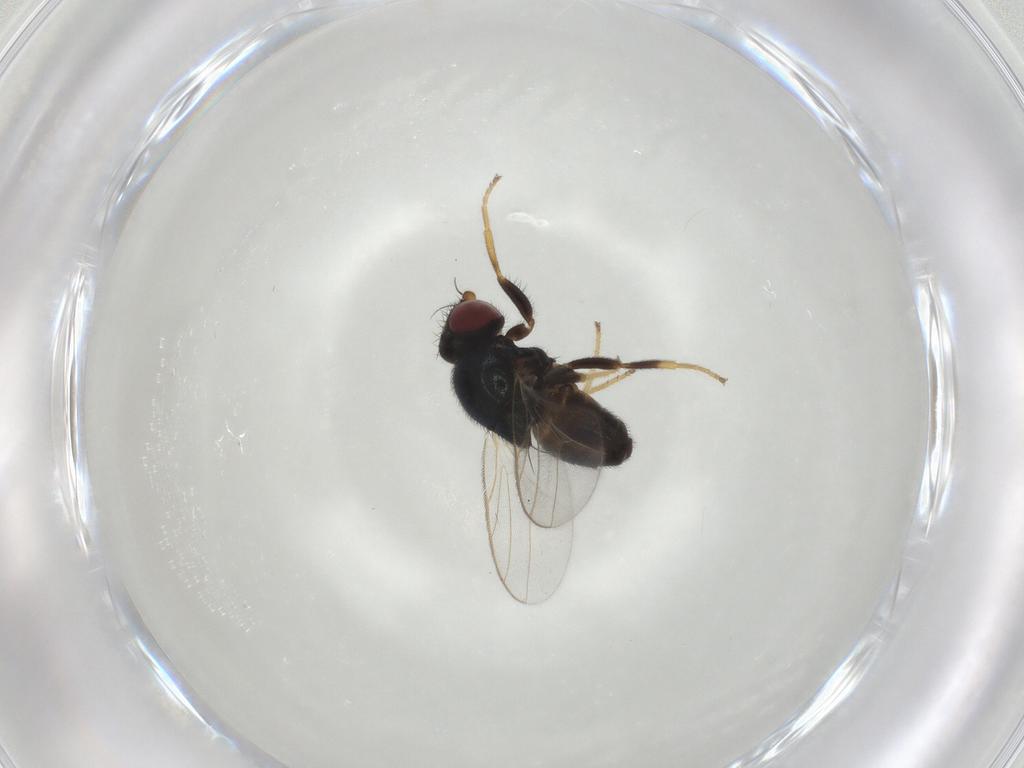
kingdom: Animalia
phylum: Arthropoda
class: Insecta
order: Diptera
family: Chloropidae
